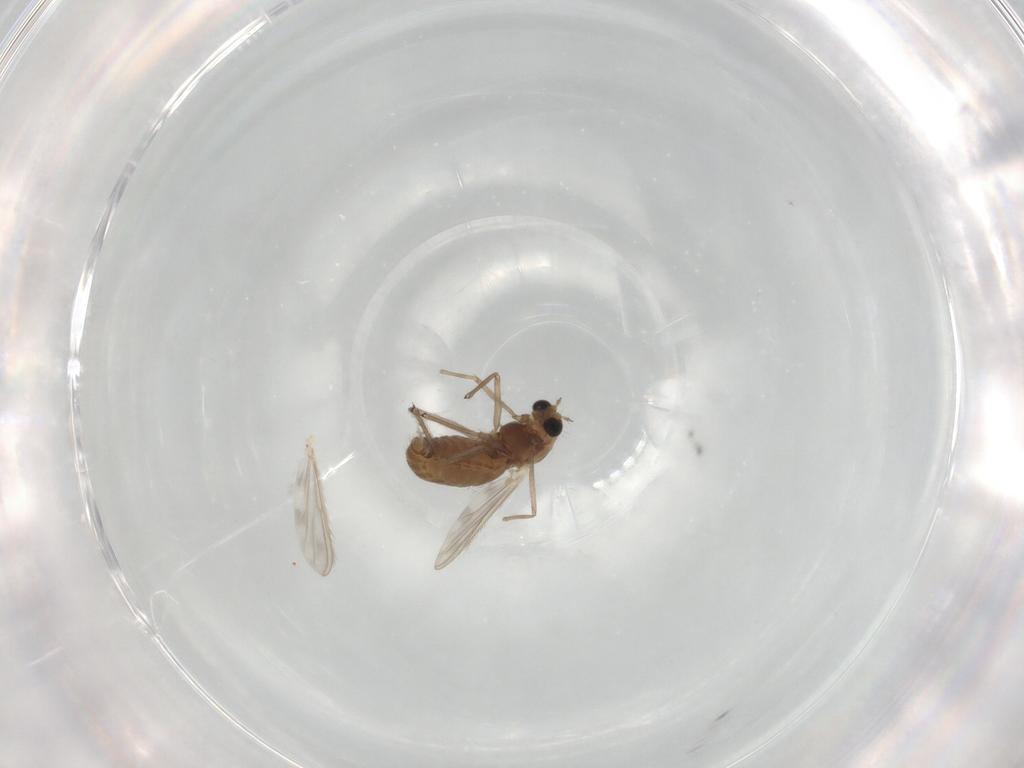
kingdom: Animalia
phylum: Arthropoda
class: Insecta
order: Diptera
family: Chironomidae
